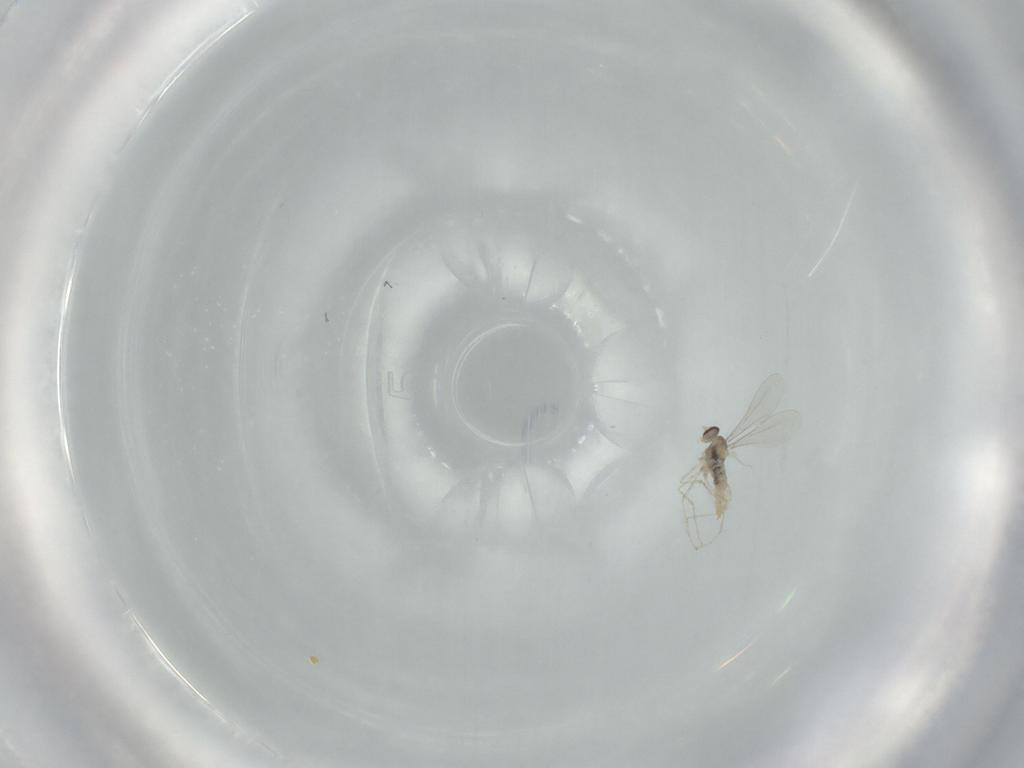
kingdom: Animalia
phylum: Arthropoda
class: Insecta
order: Diptera
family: Cecidomyiidae
